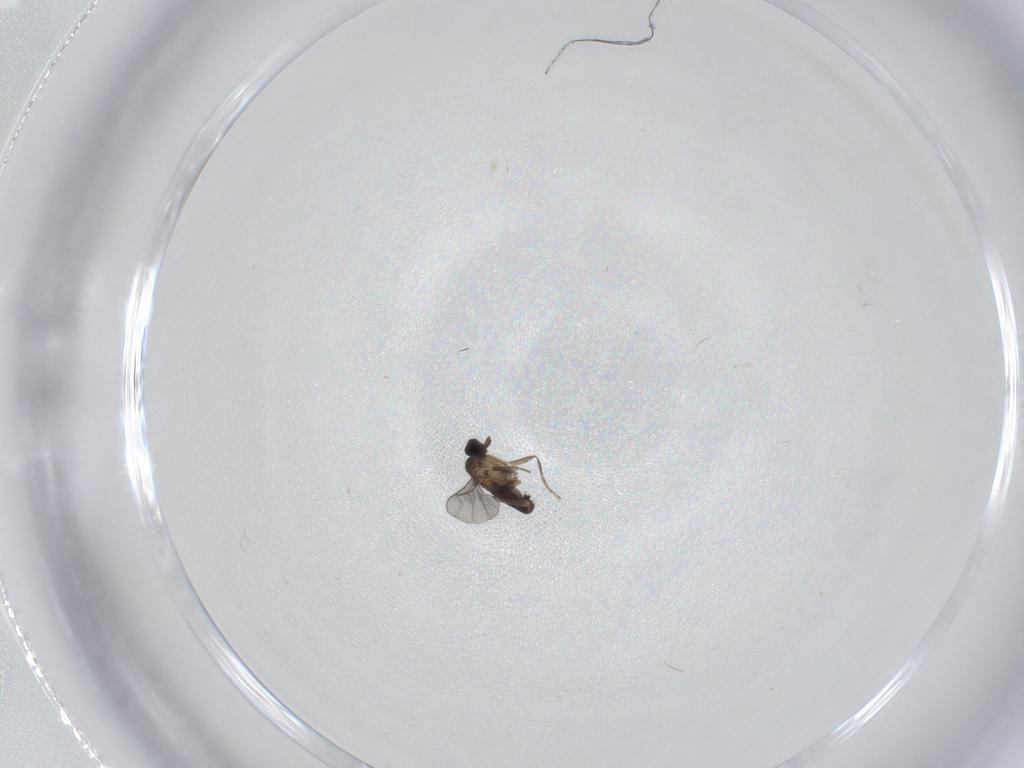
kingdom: Animalia
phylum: Arthropoda
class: Insecta
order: Diptera
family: Phoridae
